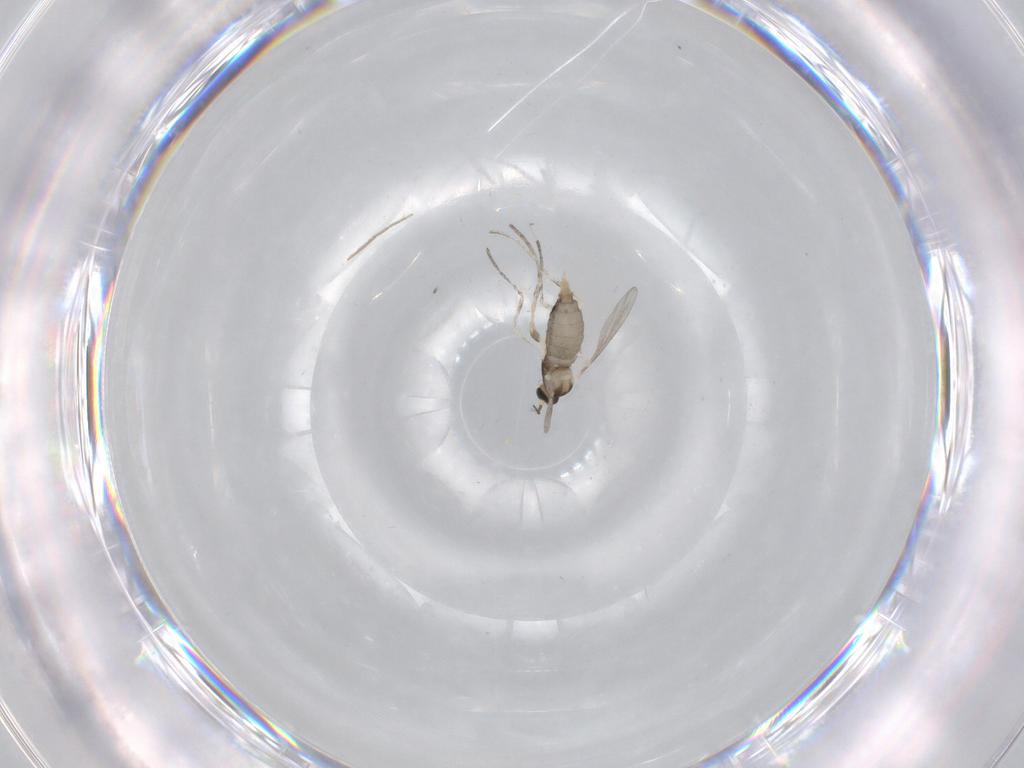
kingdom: Animalia
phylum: Arthropoda
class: Insecta
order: Diptera
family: Cecidomyiidae
